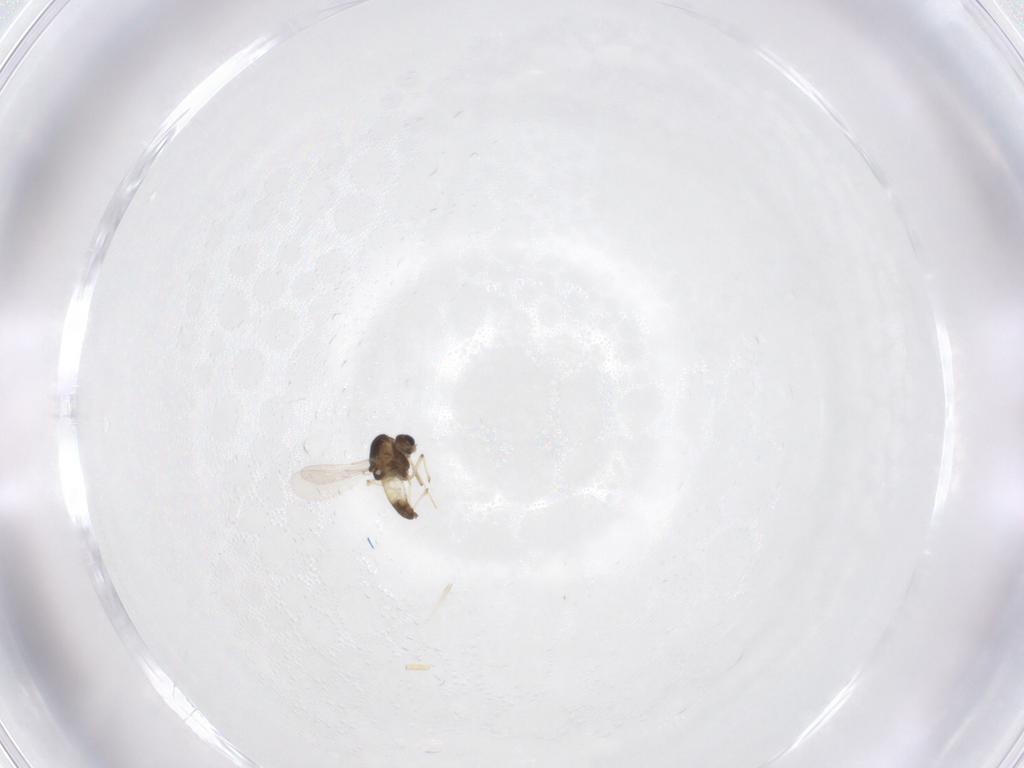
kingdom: Animalia
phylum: Arthropoda
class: Insecta
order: Diptera
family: Chironomidae
